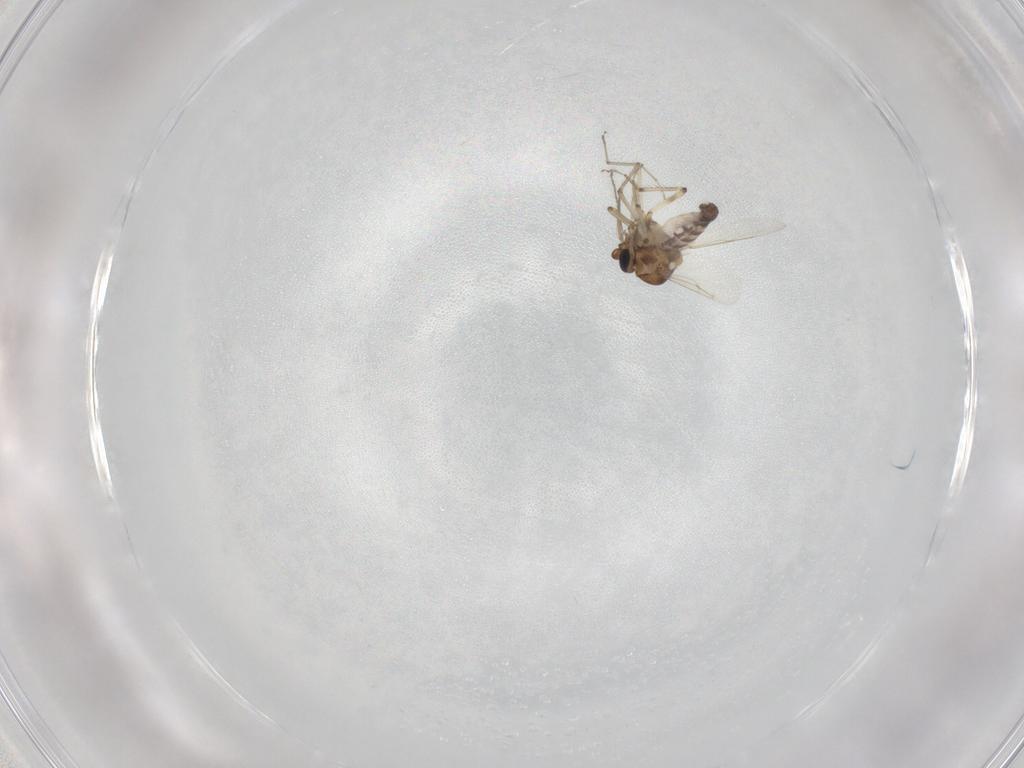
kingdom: Animalia
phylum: Arthropoda
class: Insecta
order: Diptera
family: Ceratopogonidae
